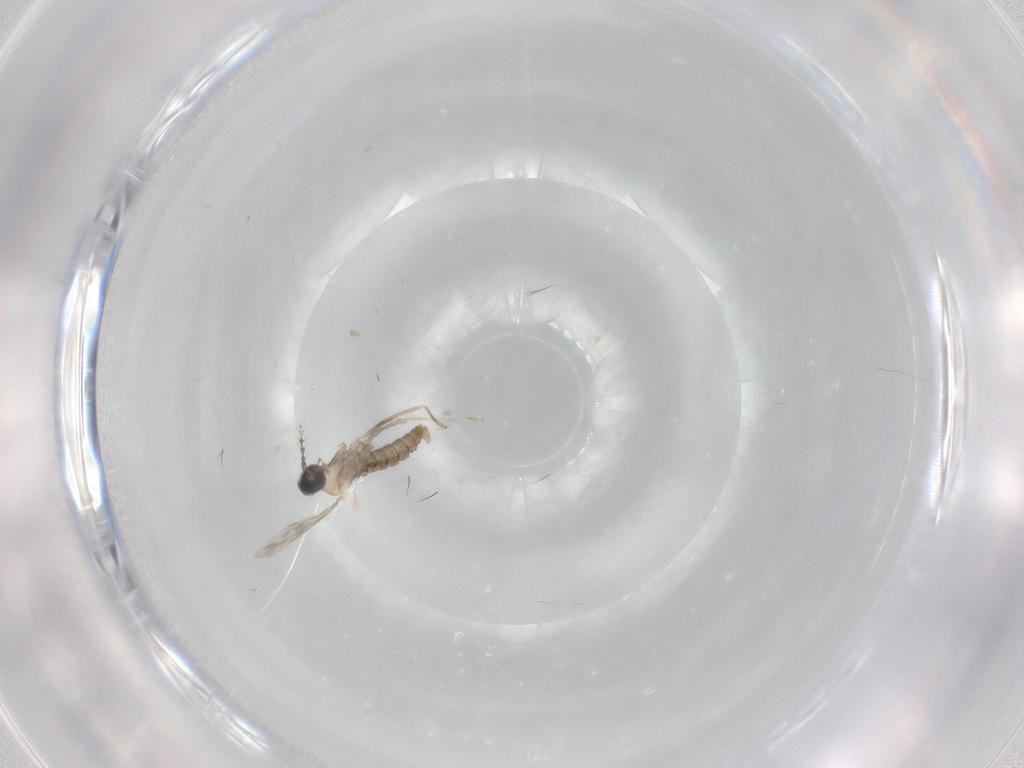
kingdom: Animalia
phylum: Arthropoda
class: Insecta
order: Diptera
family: Cecidomyiidae
